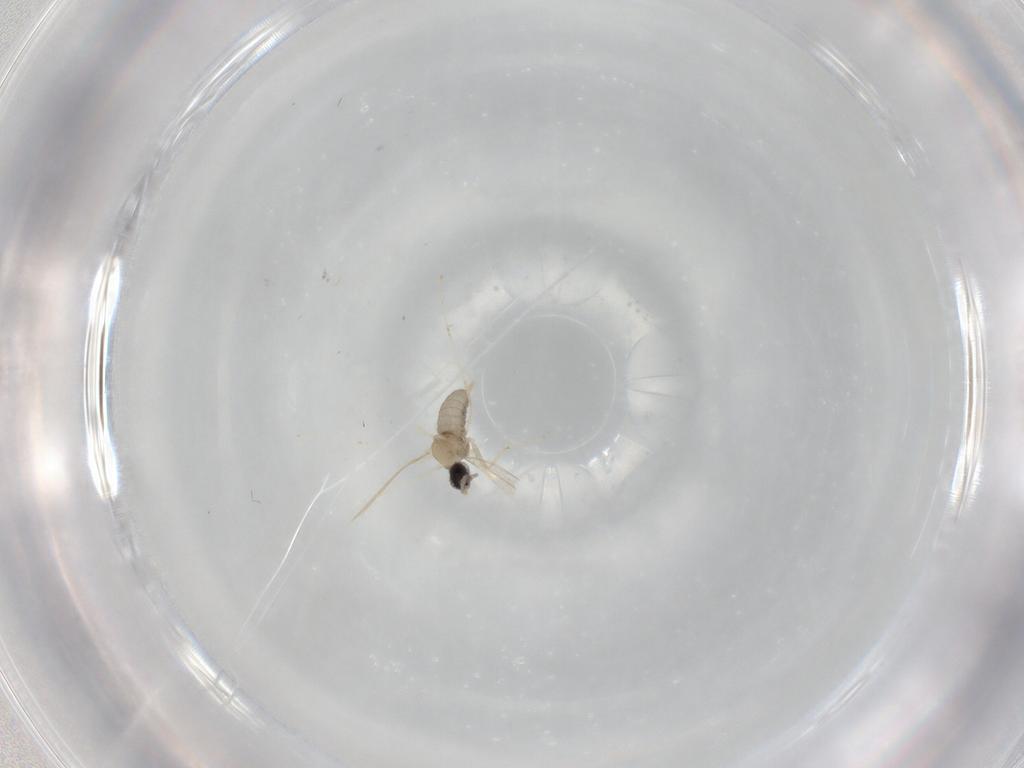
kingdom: Animalia
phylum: Arthropoda
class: Insecta
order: Diptera
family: Cecidomyiidae
